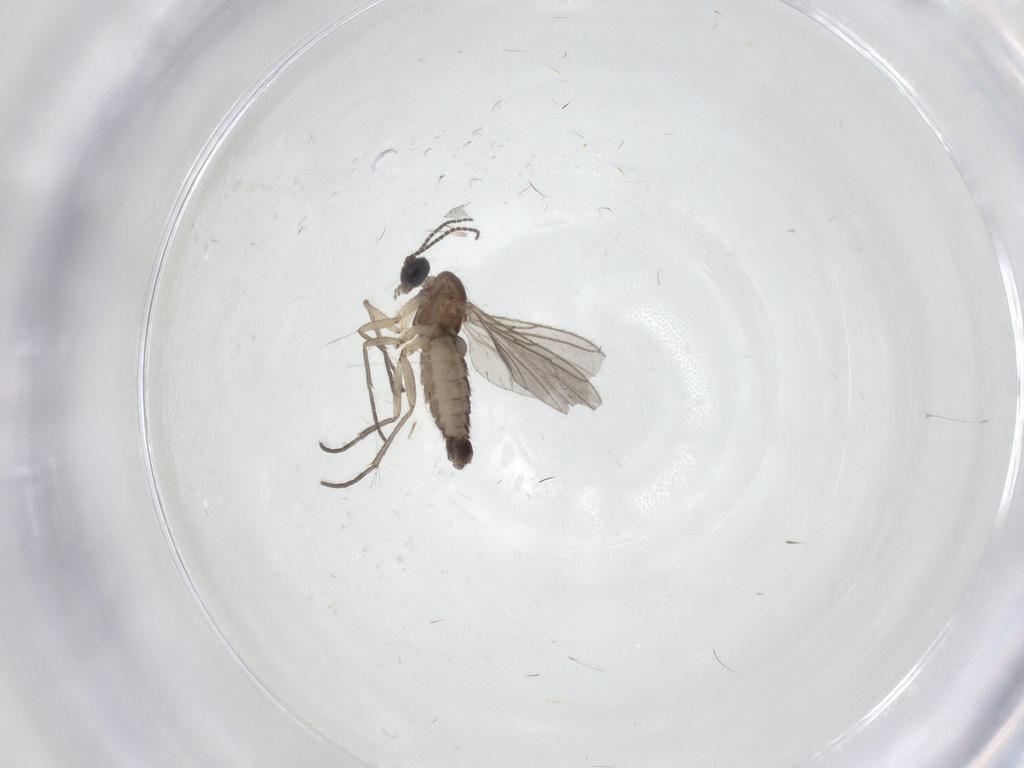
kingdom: Animalia
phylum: Arthropoda
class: Insecta
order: Diptera
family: Sciaridae
